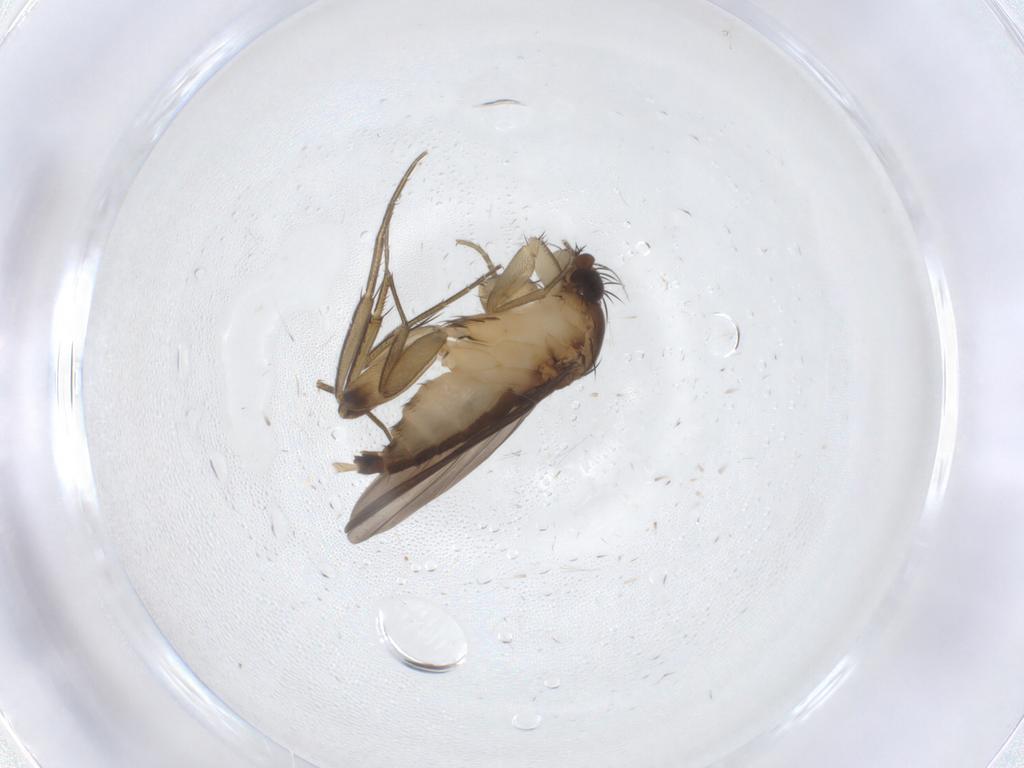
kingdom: Animalia
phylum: Arthropoda
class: Insecta
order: Diptera
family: Phoridae
